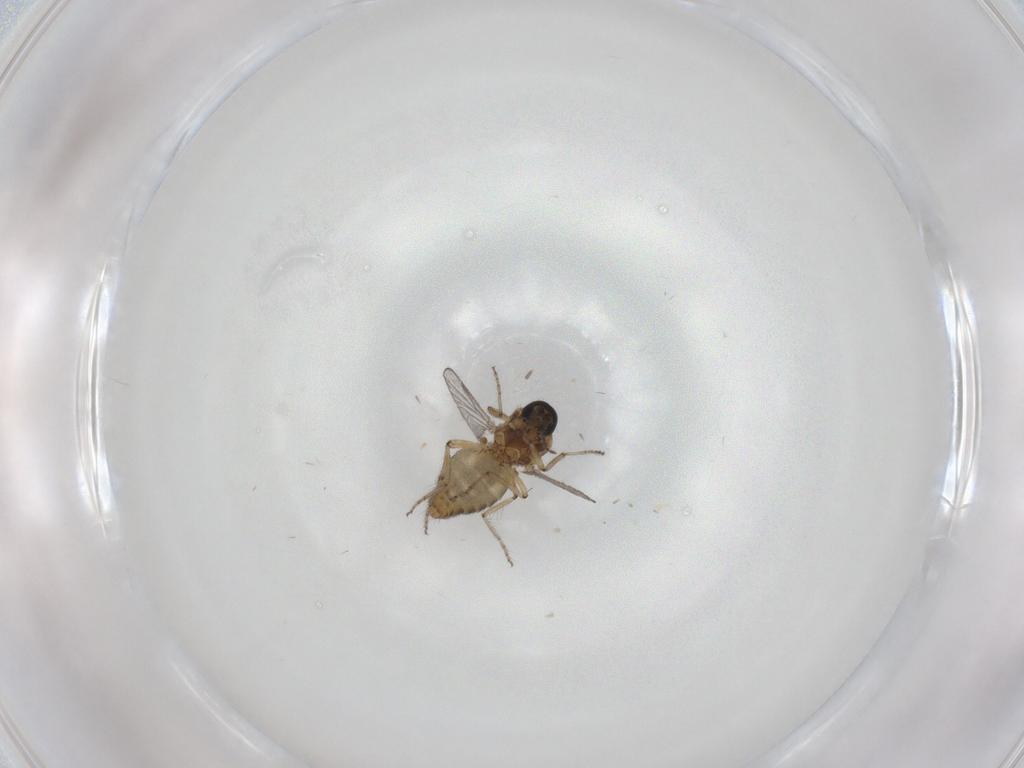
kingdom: Animalia
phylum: Arthropoda
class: Insecta
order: Diptera
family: Ceratopogonidae
